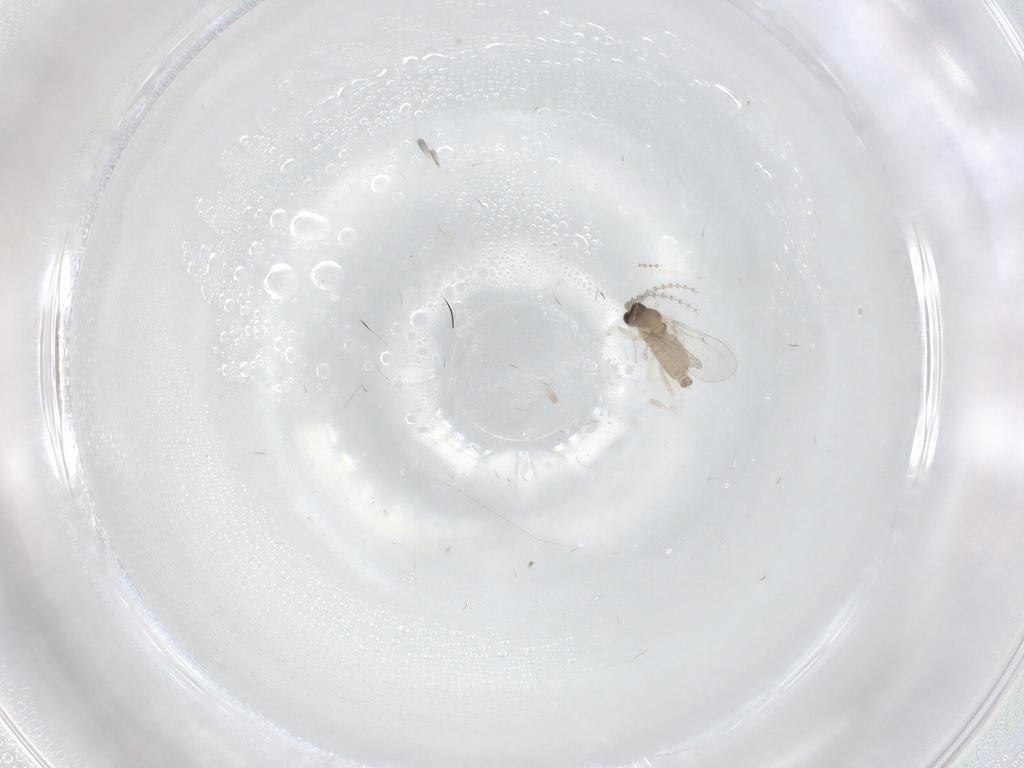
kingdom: Animalia
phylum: Arthropoda
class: Insecta
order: Diptera
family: Cecidomyiidae
